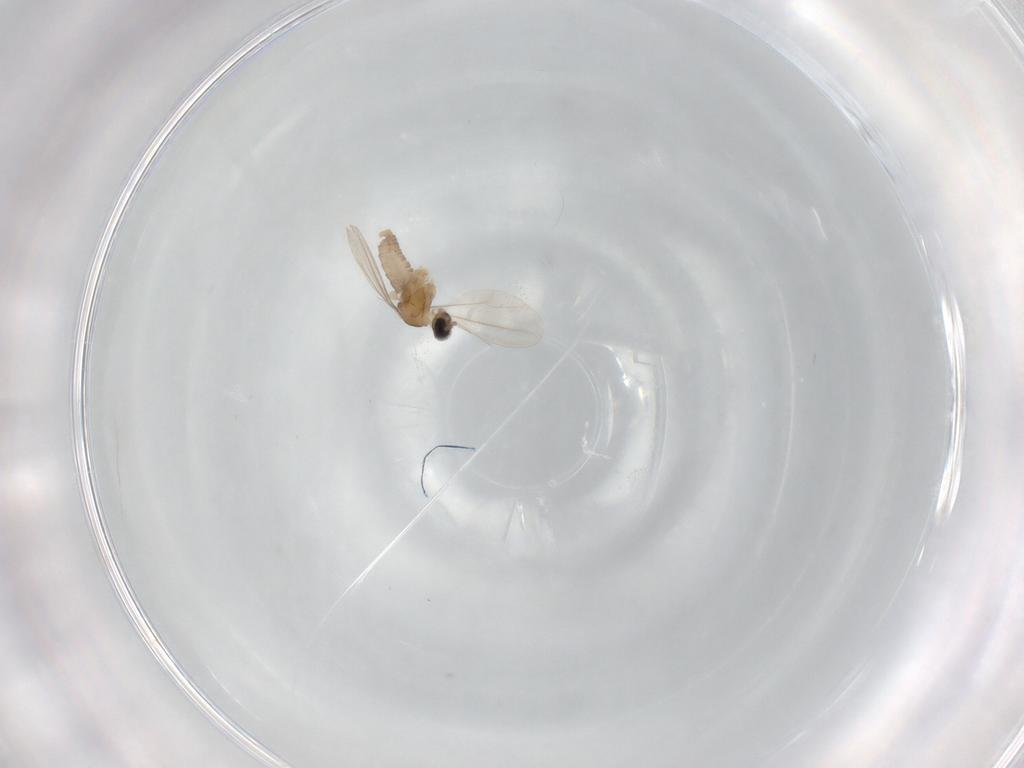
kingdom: Animalia
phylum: Arthropoda
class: Insecta
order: Diptera
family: Cecidomyiidae
